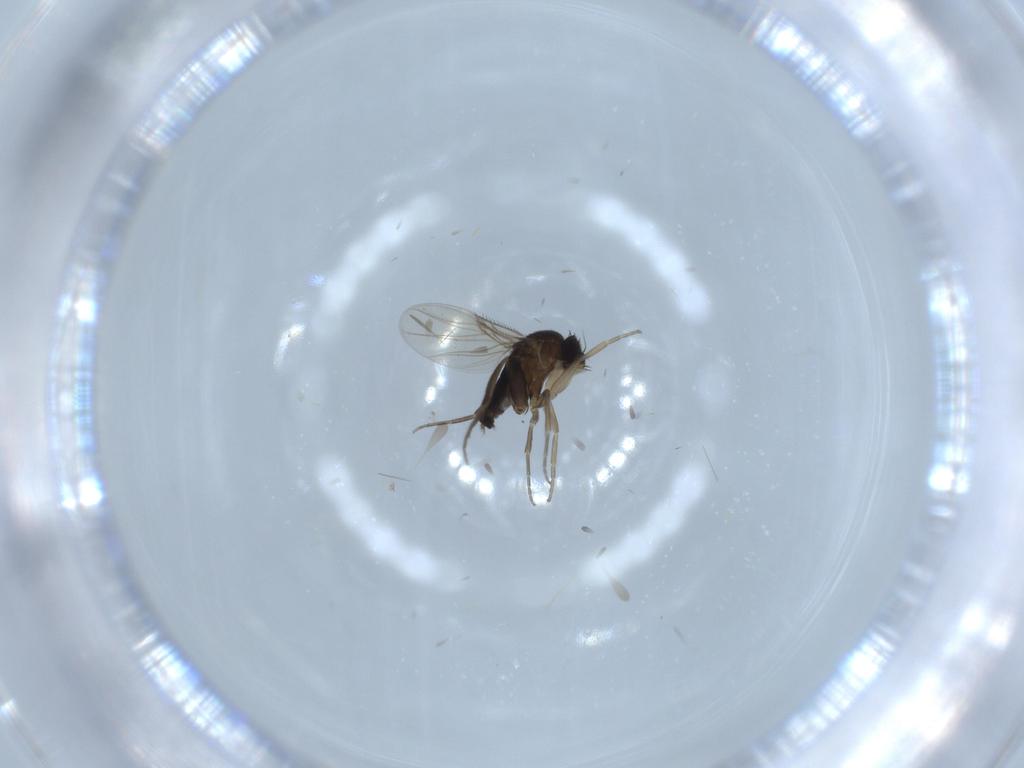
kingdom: Animalia
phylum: Arthropoda
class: Insecta
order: Diptera
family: Phoridae
